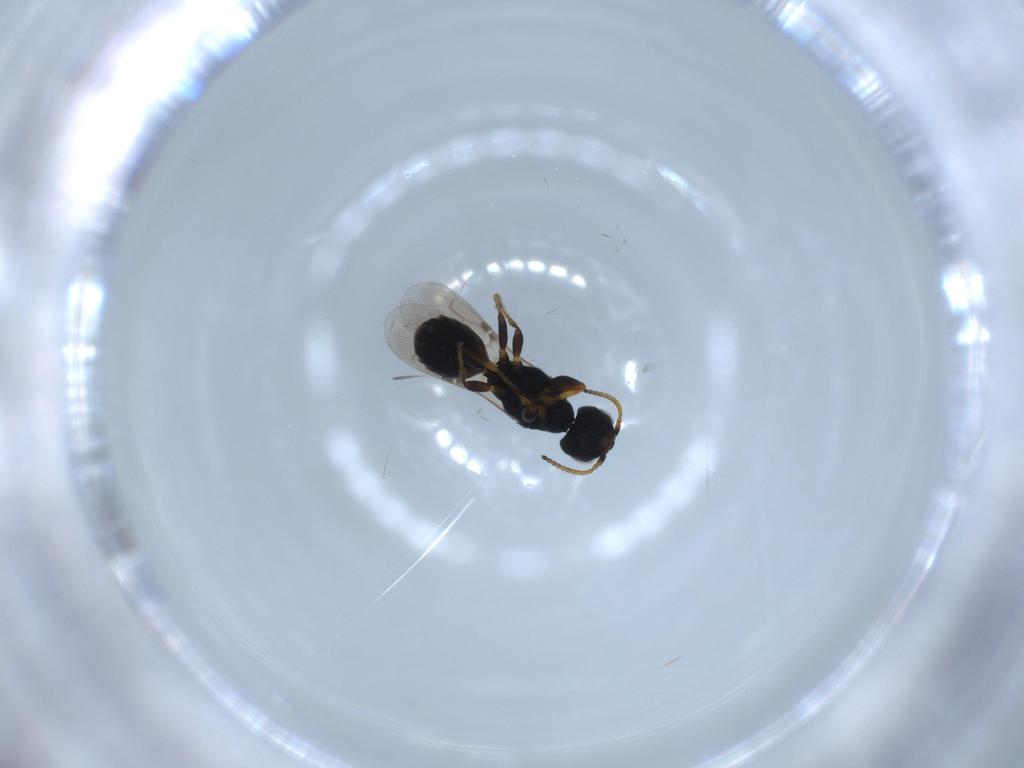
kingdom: Animalia
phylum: Arthropoda
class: Insecta
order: Hymenoptera
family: Bethylidae
